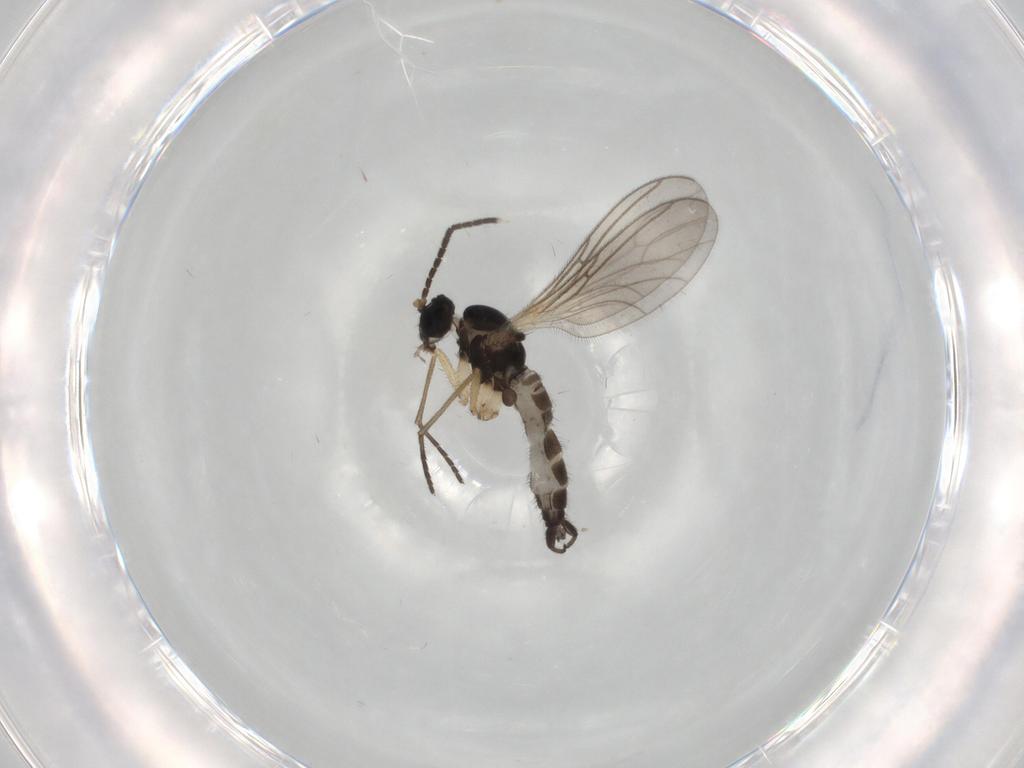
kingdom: Animalia
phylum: Arthropoda
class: Insecta
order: Diptera
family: Sciaridae
